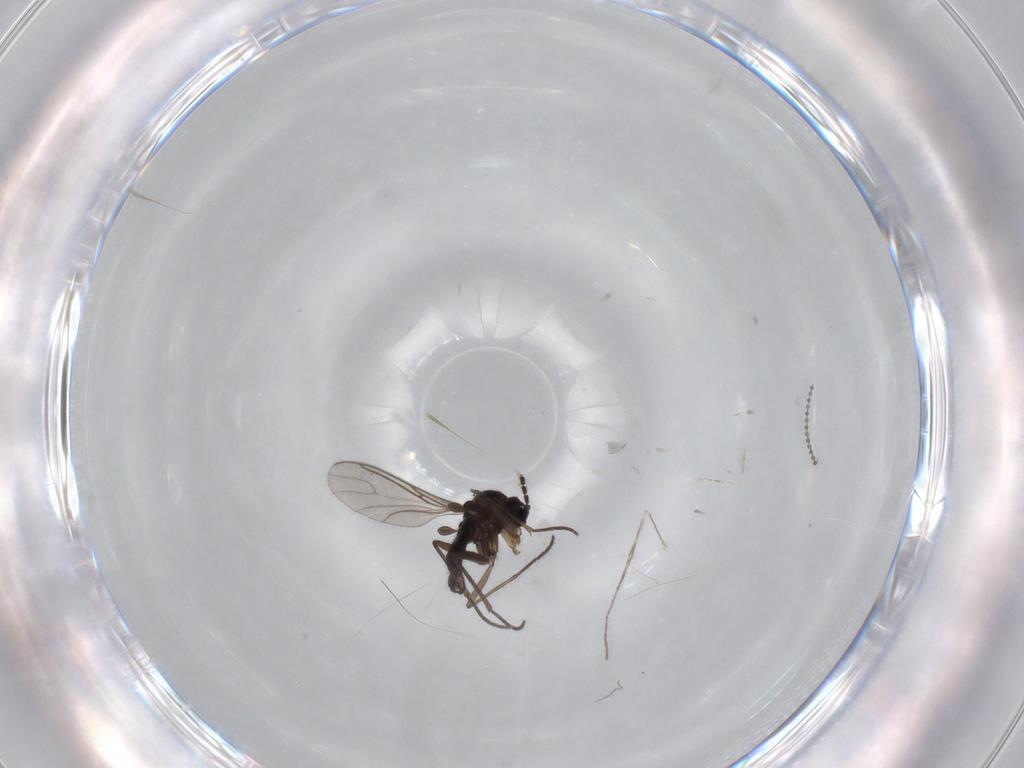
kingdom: Animalia
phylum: Arthropoda
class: Insecta
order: Diptera
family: Sciaridae
